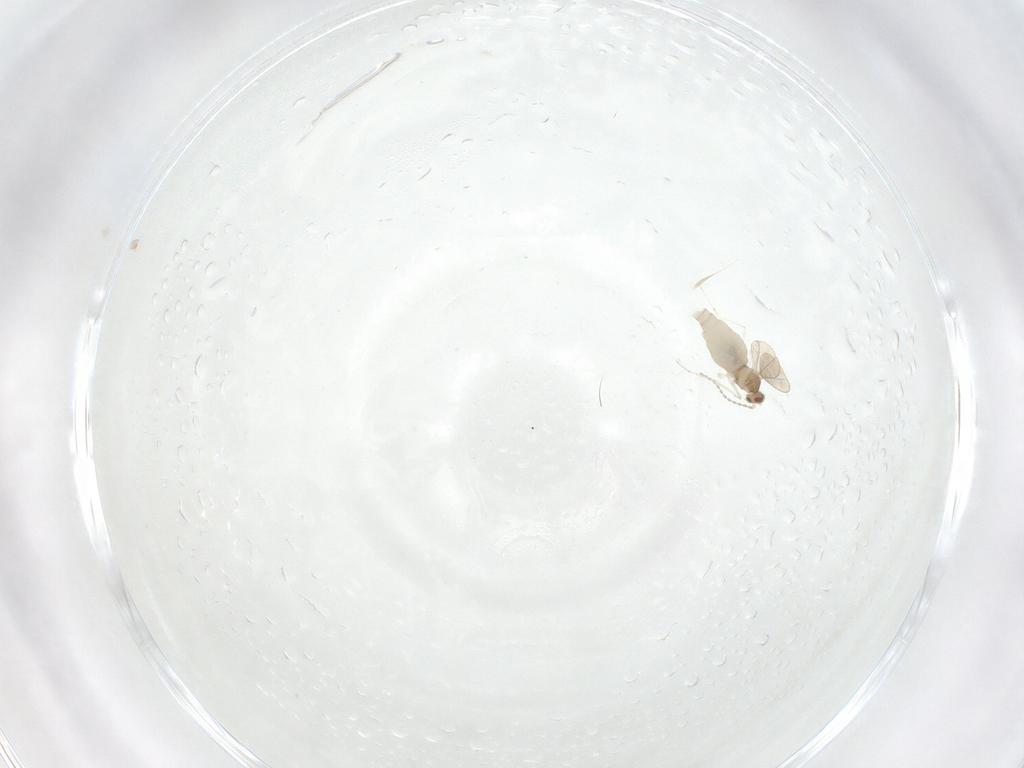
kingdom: Animalia
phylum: Arthropoda
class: Insecta
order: Diptera
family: Cecidomyiidae
